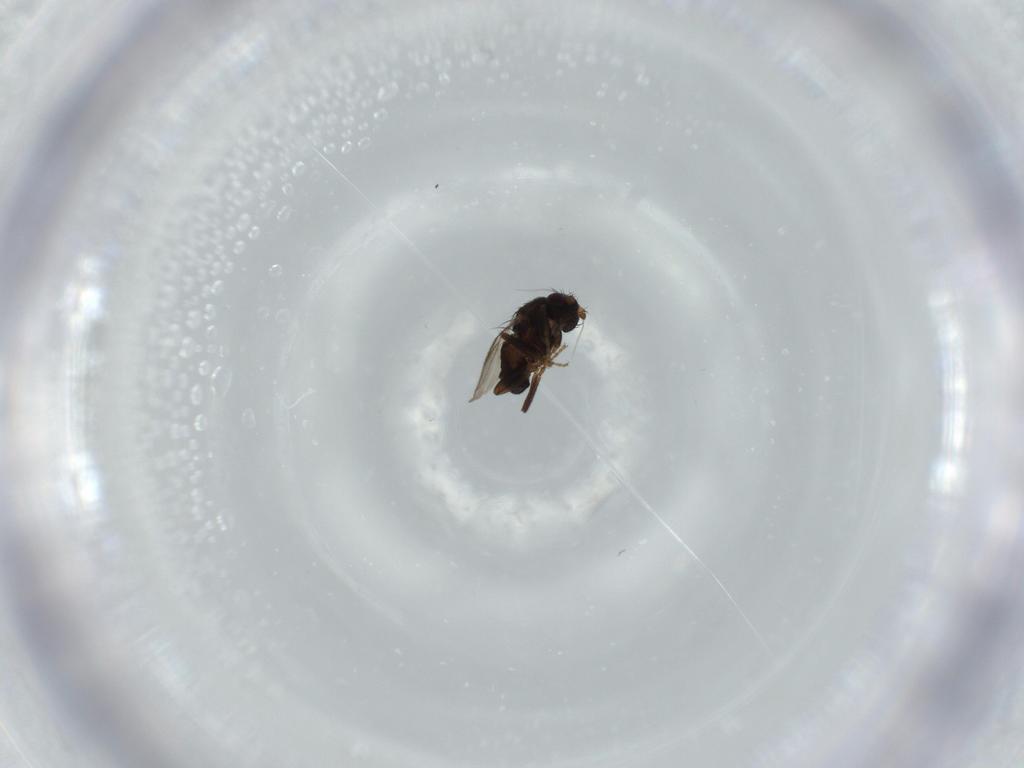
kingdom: Animalia
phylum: Arthropoda
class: Insecta
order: Diptera
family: Sphaeroceridae
